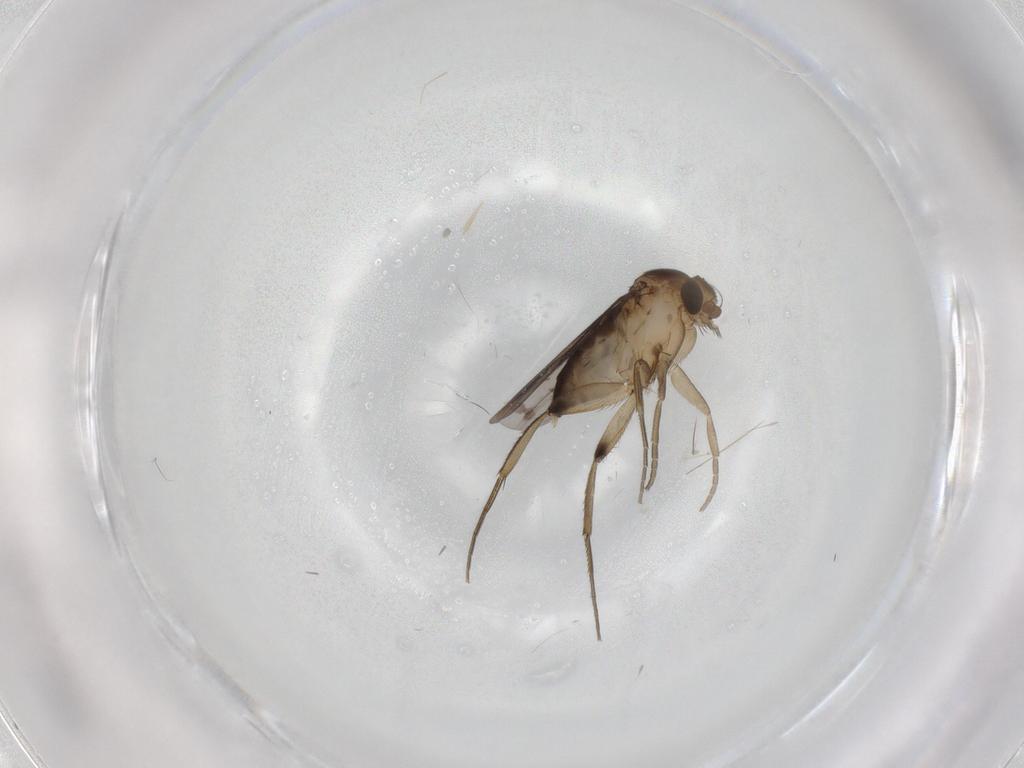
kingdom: Animalia
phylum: Arthropoda
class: Insecta
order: Diptera
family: Phoridae
